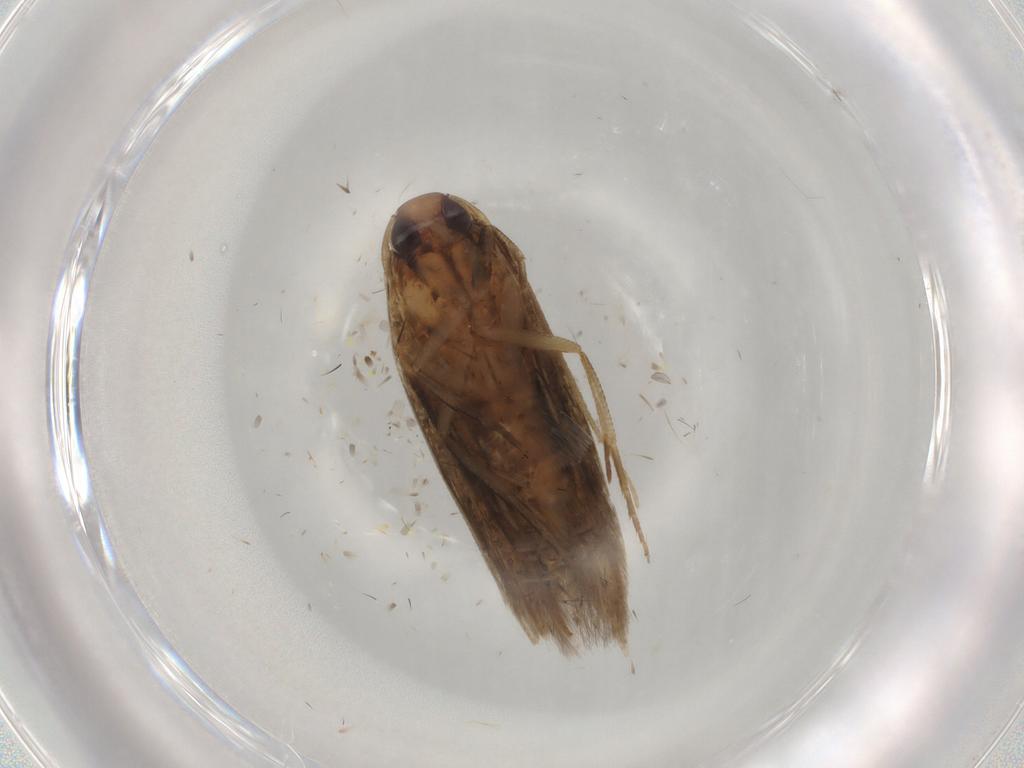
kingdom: Animalia
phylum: Arthropoda
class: Insecta
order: Lepidoptera
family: Cosmopterigidae
